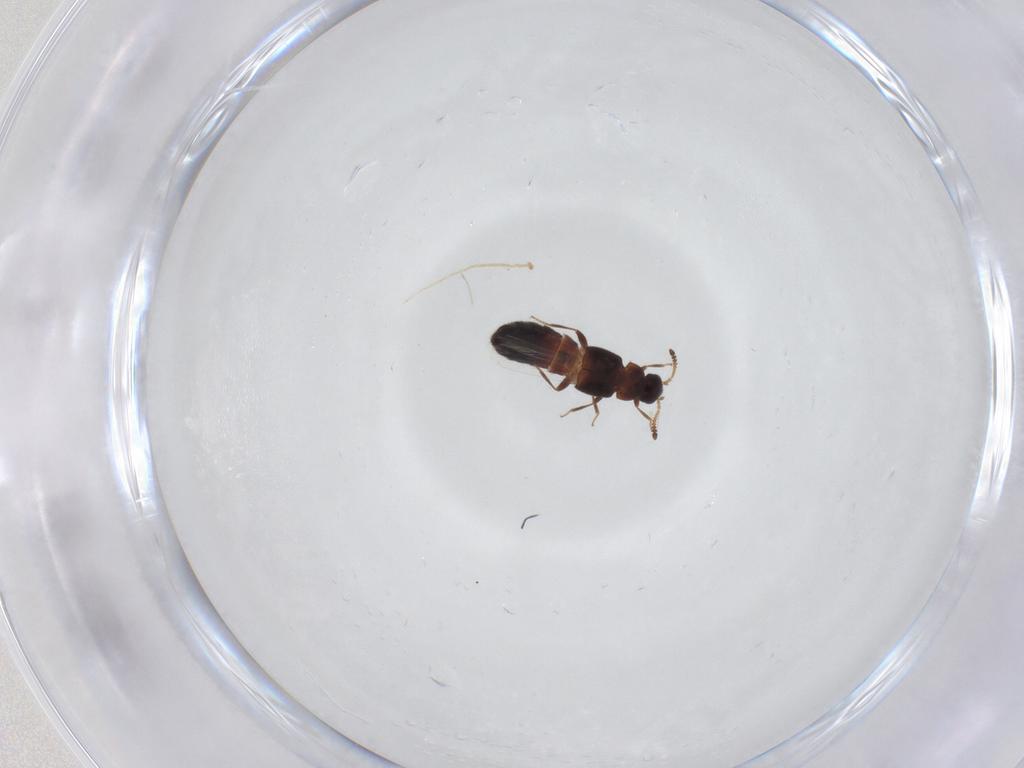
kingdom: Animalia
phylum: Arthropoda
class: Insecta
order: Coleoptera
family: Staphylinidae
